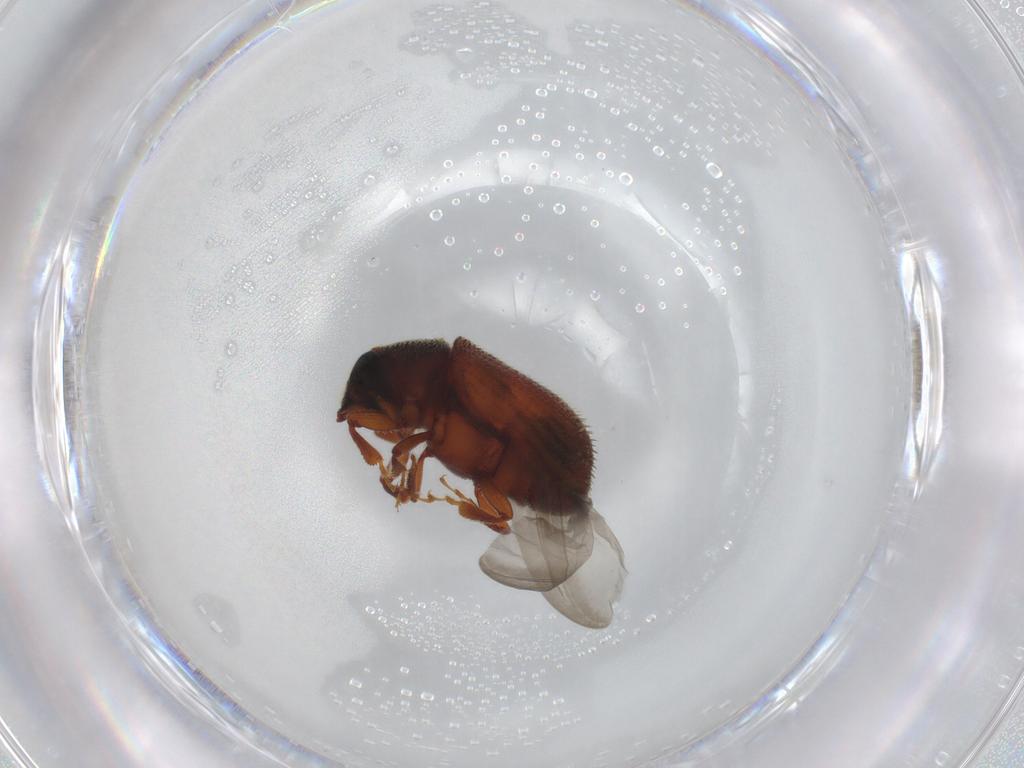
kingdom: Animalia
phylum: Arthropoda
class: Insecta
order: Coleoptera
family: Curculionidae
